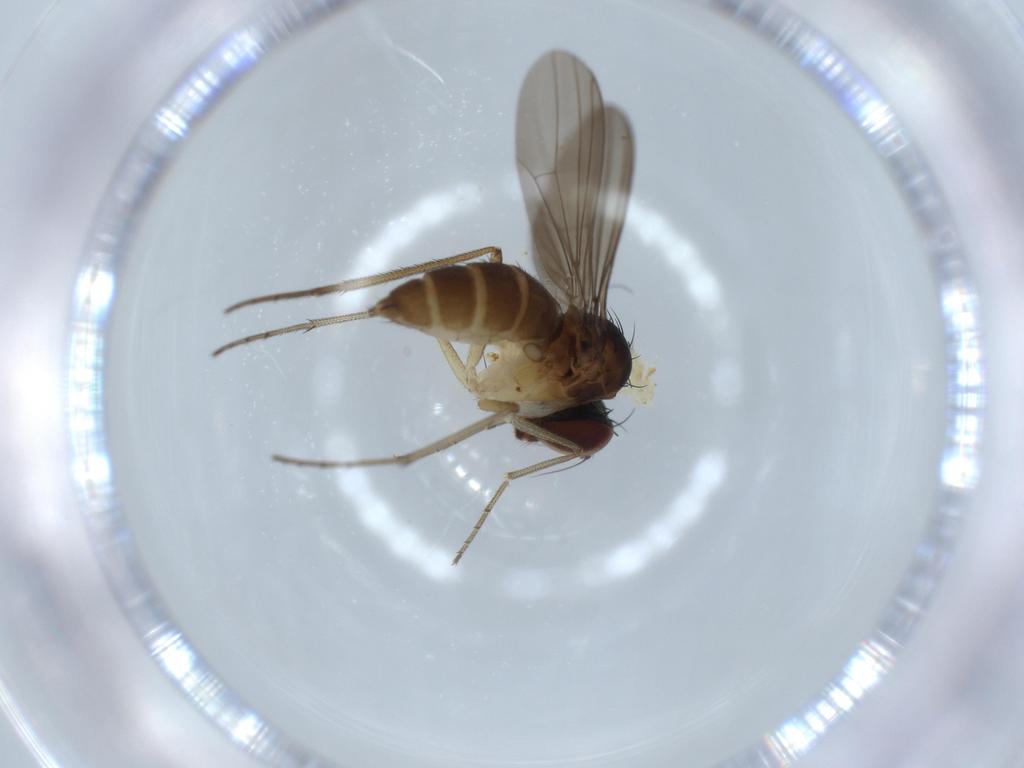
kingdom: Animalia
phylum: Arthropoda
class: Insecta
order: Diptera
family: Dolichopodidae
